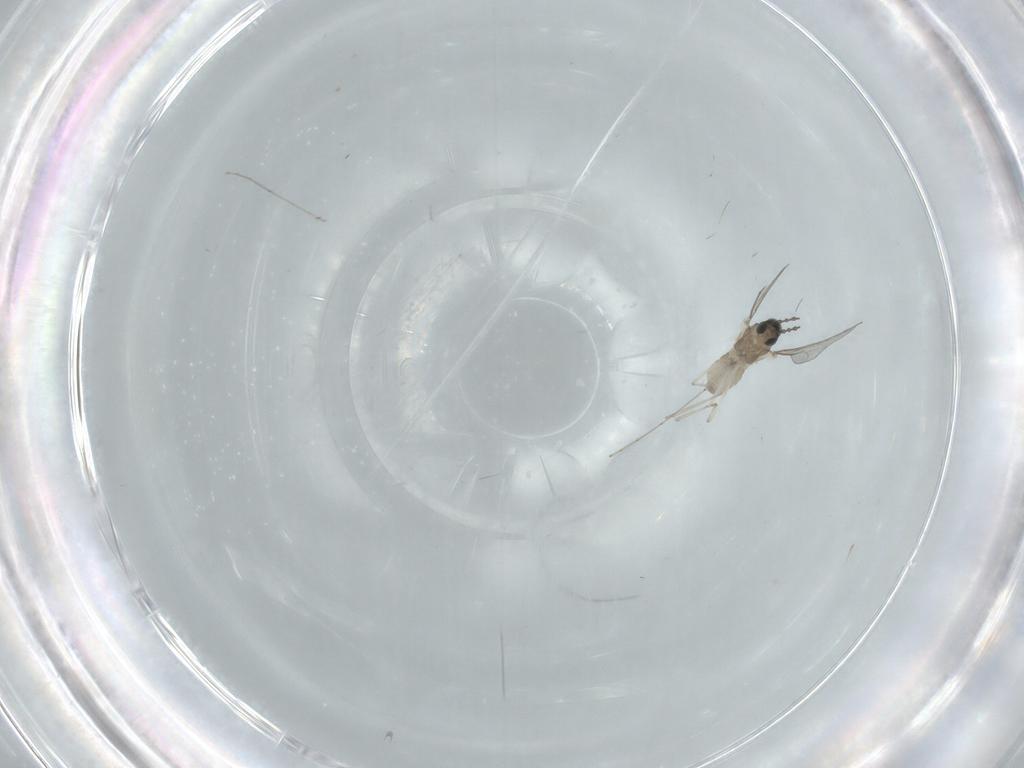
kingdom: Animalia
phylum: Arthropoda
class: Insecta
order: Diptera
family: Cecidomyiidae
